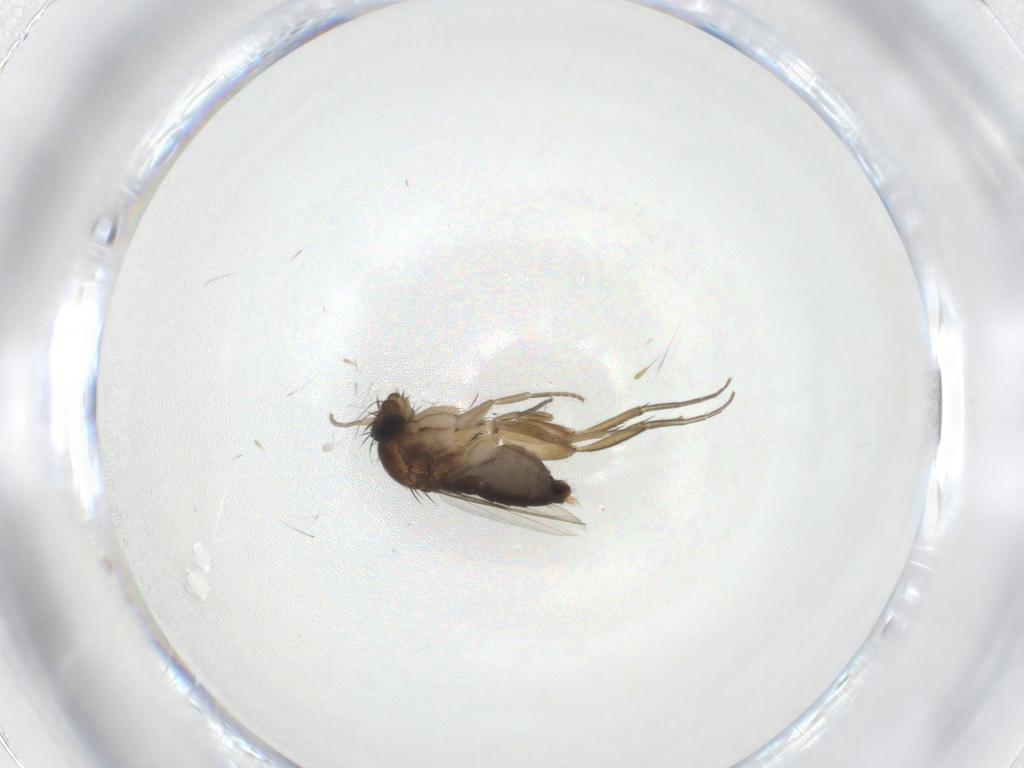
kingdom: Animalia
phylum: Arthropoda
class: Insecta
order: Diptera
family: Phoridae
